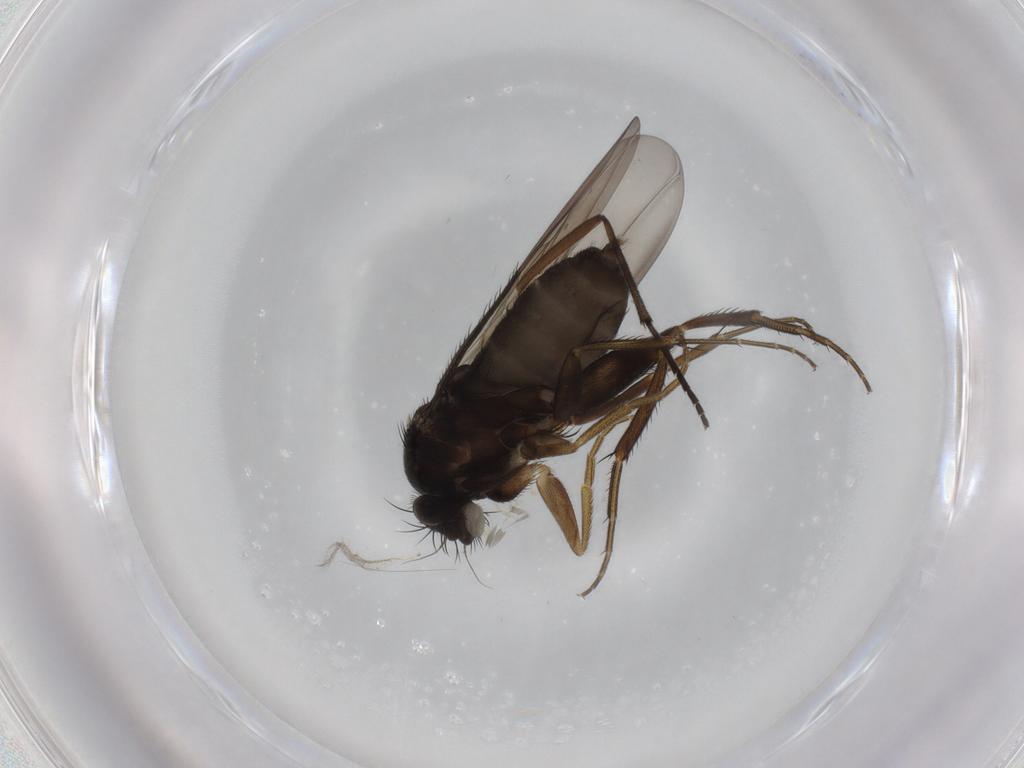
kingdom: Animalia
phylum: Arthropoda
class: Insecta
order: Diptera
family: Phoridae
